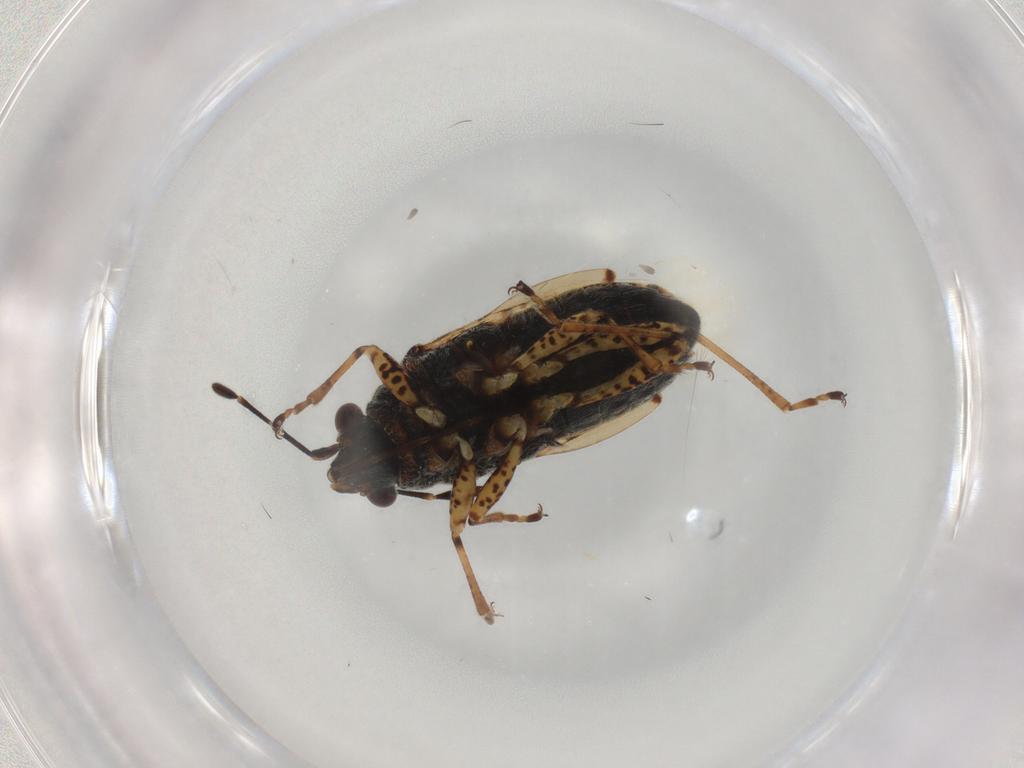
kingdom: Animalia
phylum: Arthropoda
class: Insecta
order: Hemiptera
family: Lygaeidae
